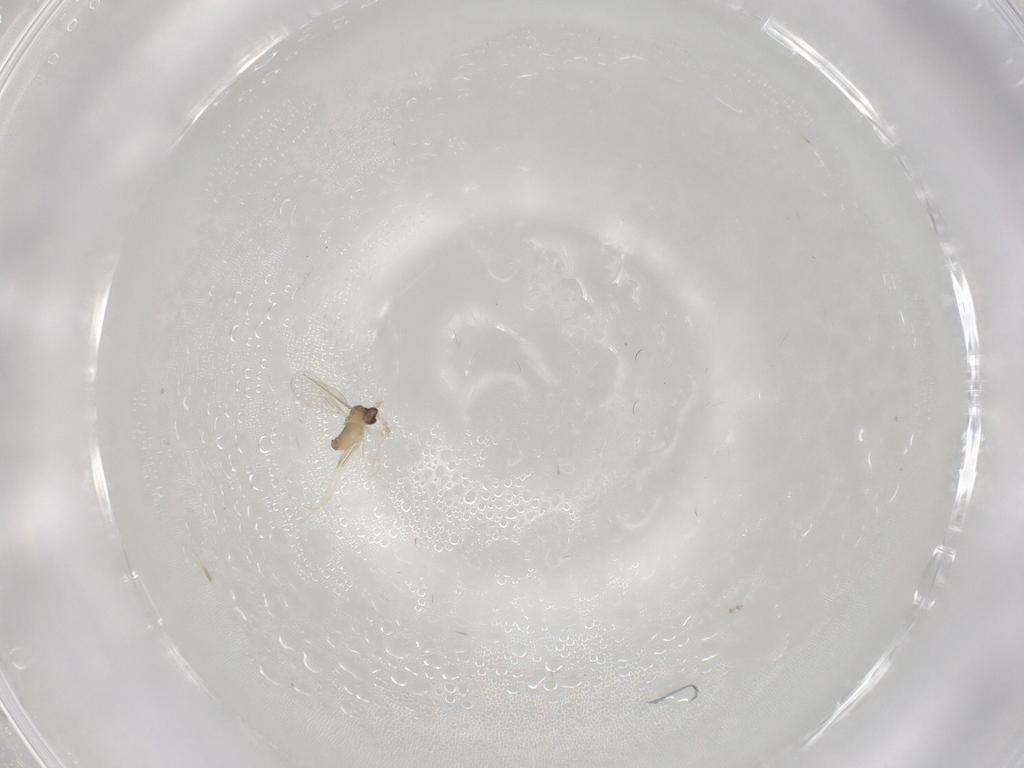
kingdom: Animalia
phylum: Arthropoda
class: Insecta
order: Diptera
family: Cecidomyiidae
